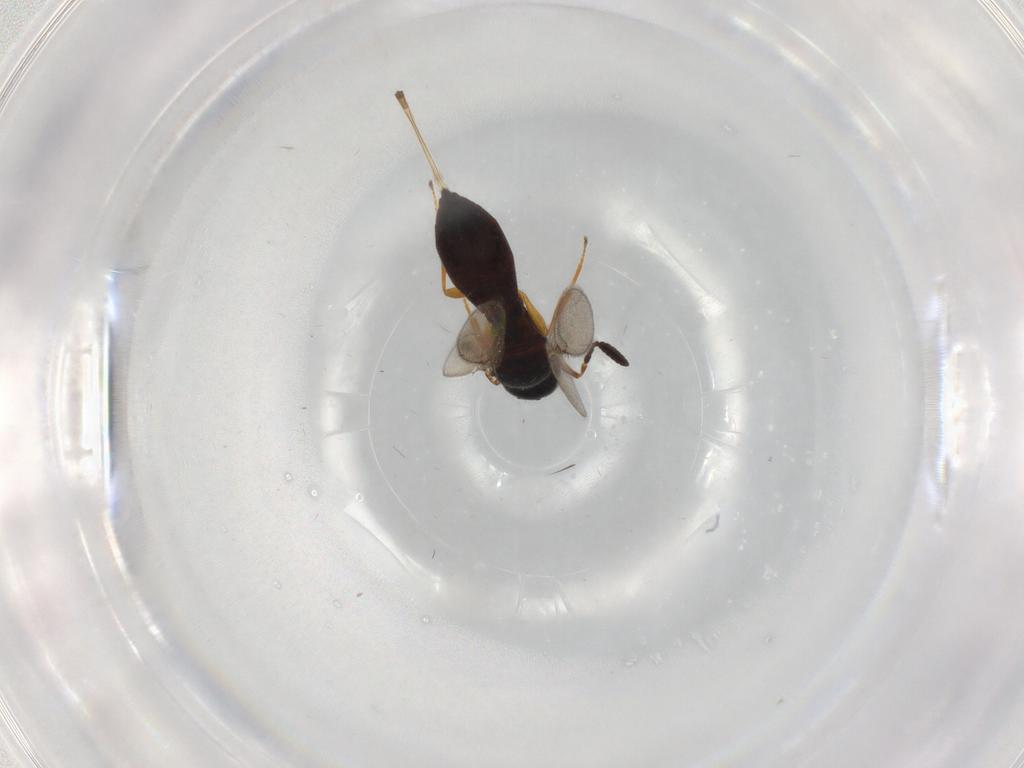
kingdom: Animalia
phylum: Arthropoda
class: Insecta
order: Hymenoptera
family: Scelionidae
